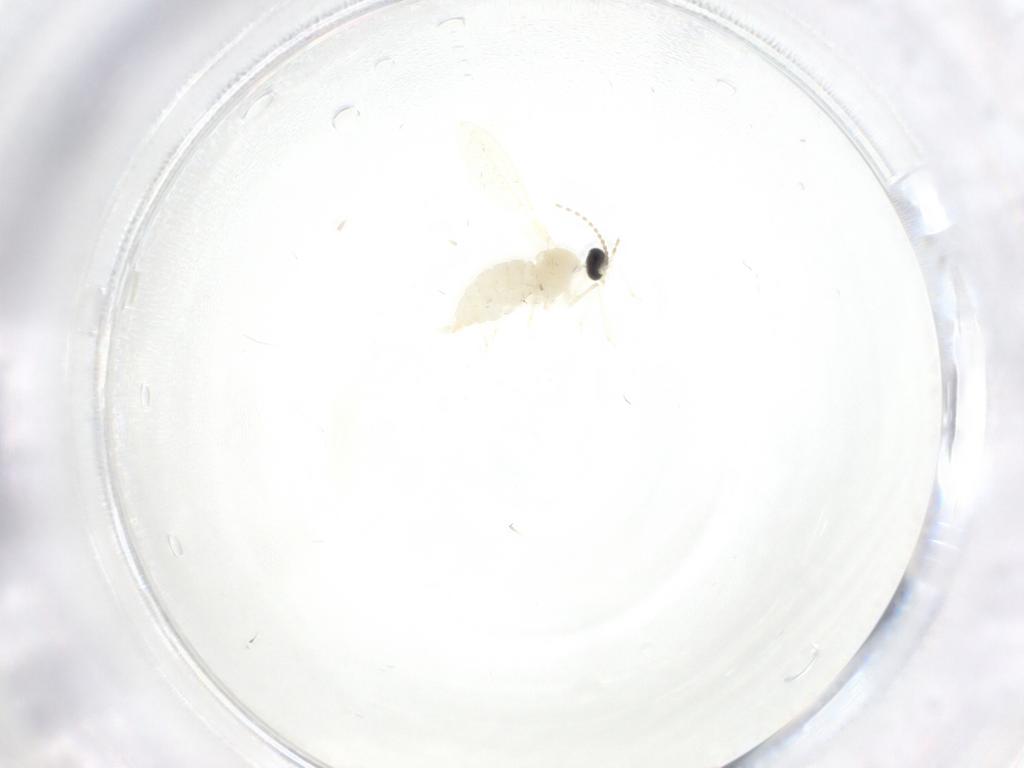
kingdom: Animalia
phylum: Arthropoda
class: Insecta
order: Diptera
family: Cecidomyiidae
